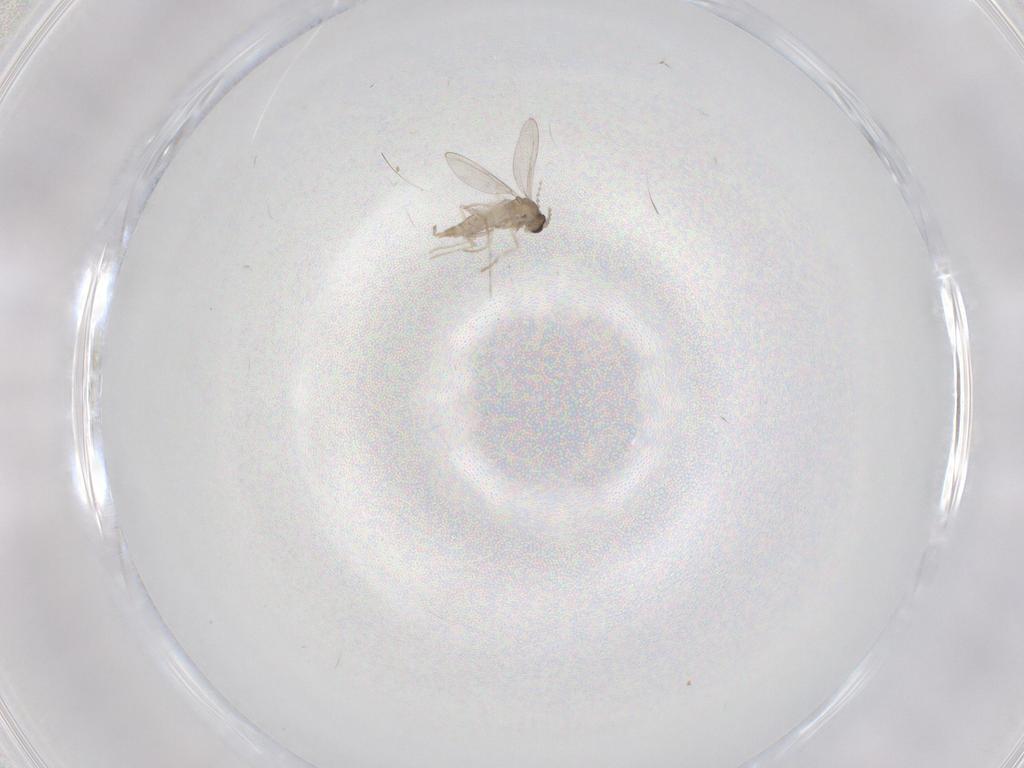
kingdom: Animalia
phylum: Arthropoda
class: Insecta
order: Diptera
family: Cecidomyiidae
